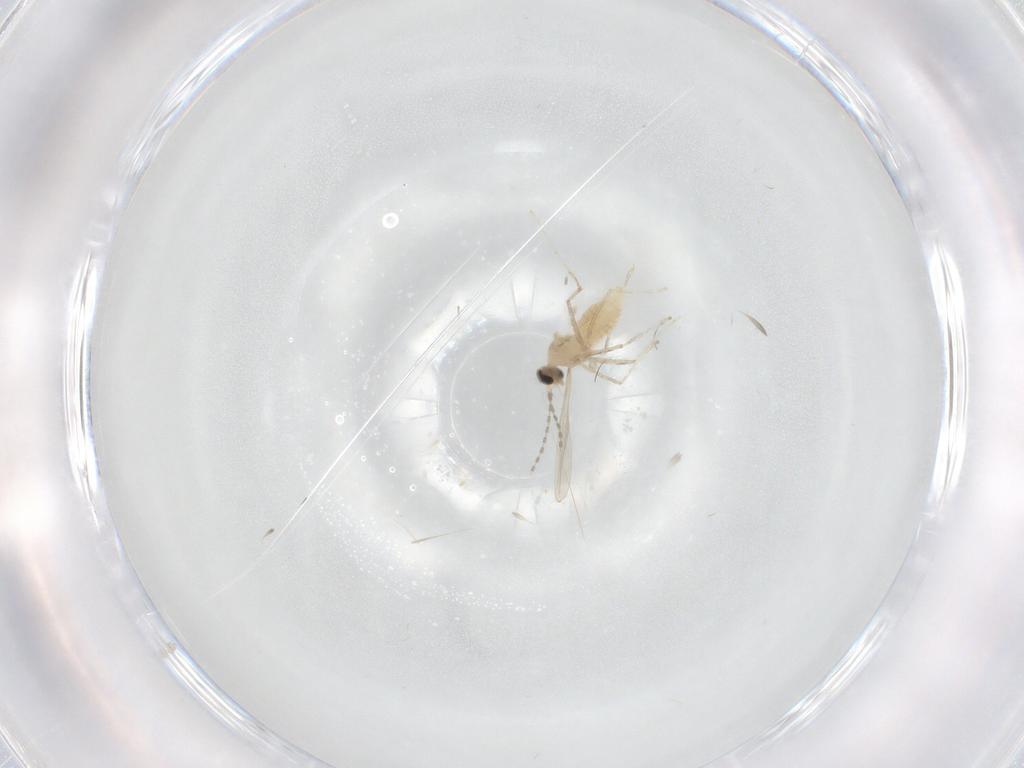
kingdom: Animalia
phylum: Arthropoda
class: Insecta
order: Diptera
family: Cecidomyiidae
